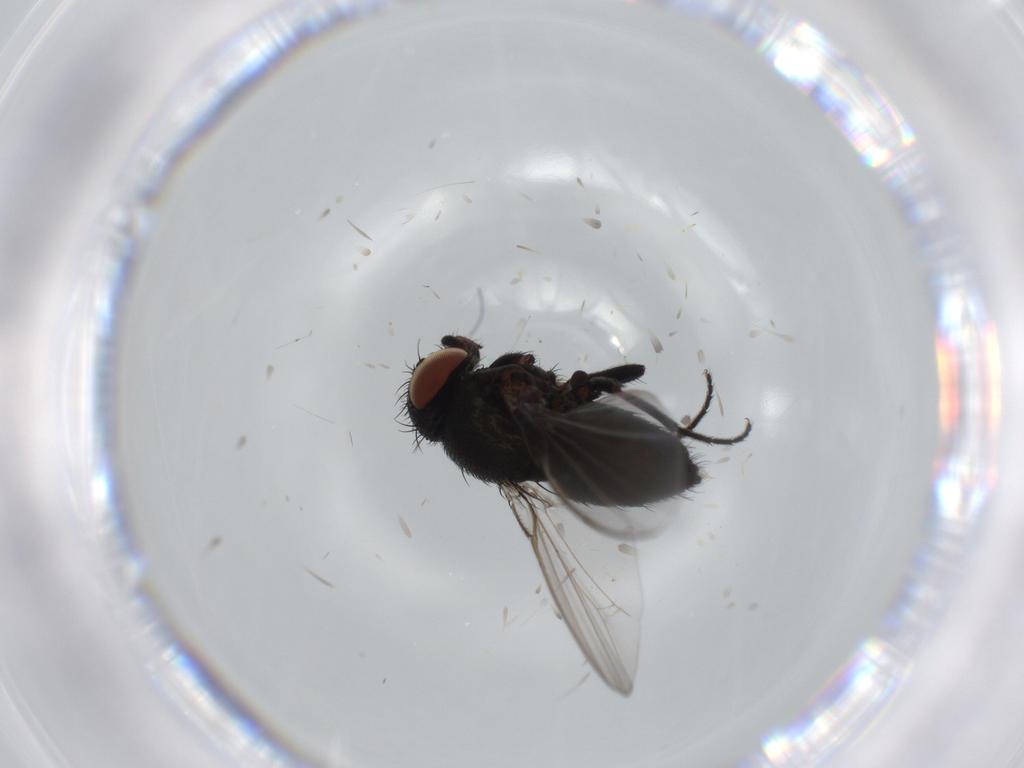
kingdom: Animalia
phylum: Arthropoda
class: Insecta
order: Diptera
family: Milichiidae
